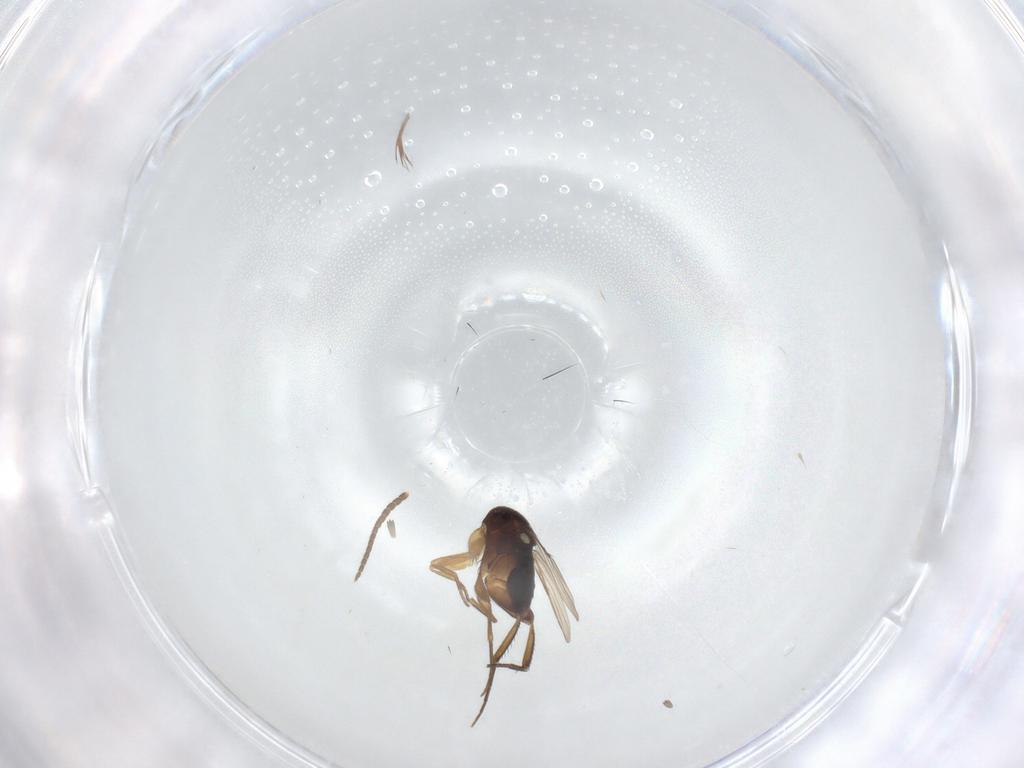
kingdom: Animalia
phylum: Arthropoda
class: Insecta
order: Diptera
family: Phoridae
